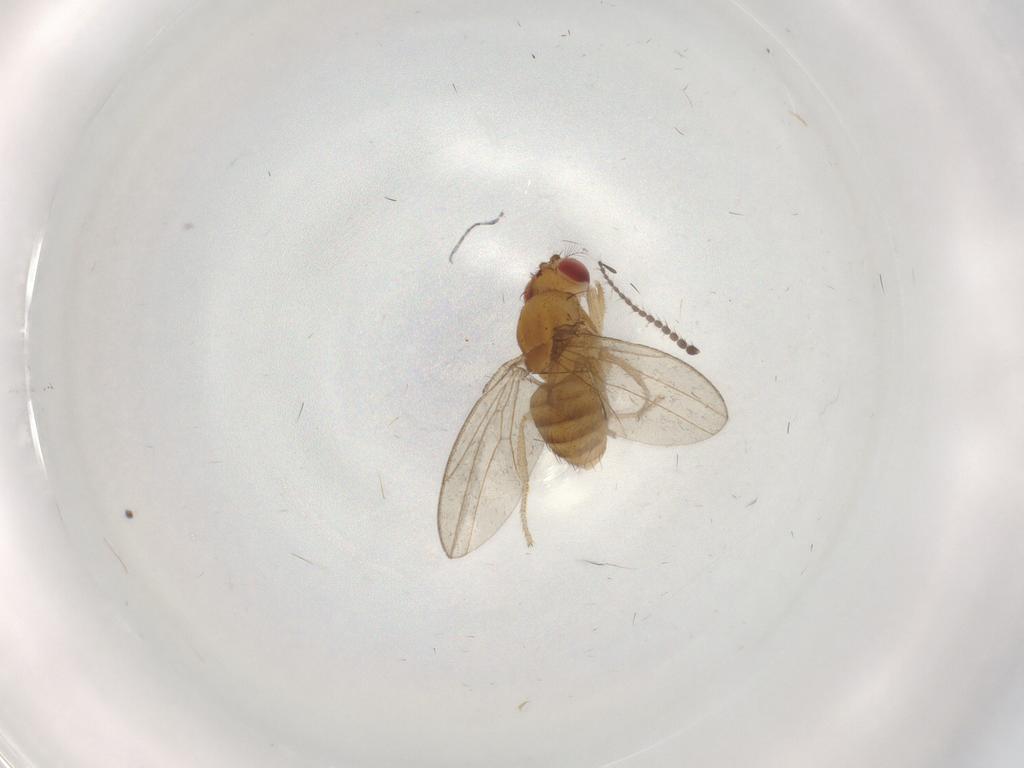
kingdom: Animalia
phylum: Arthropoda
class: Insecta
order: Diptera
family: Drosophilidae
